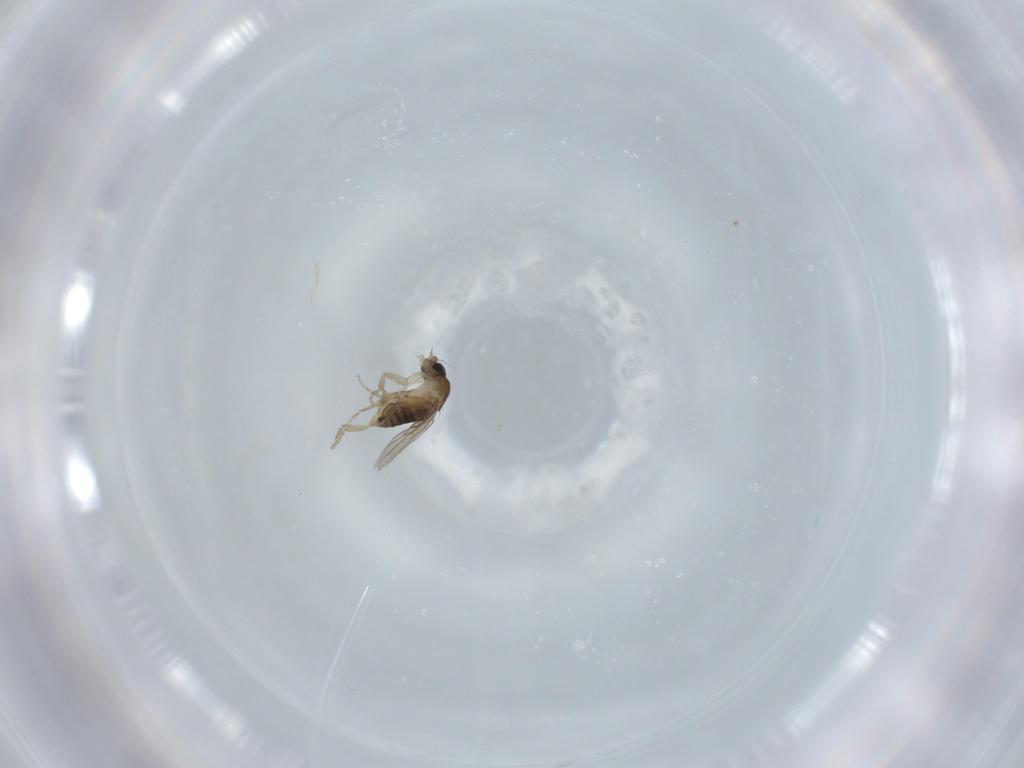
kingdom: Animalia
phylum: Arthropoda
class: Insecta
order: Diptera
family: Phoridae
